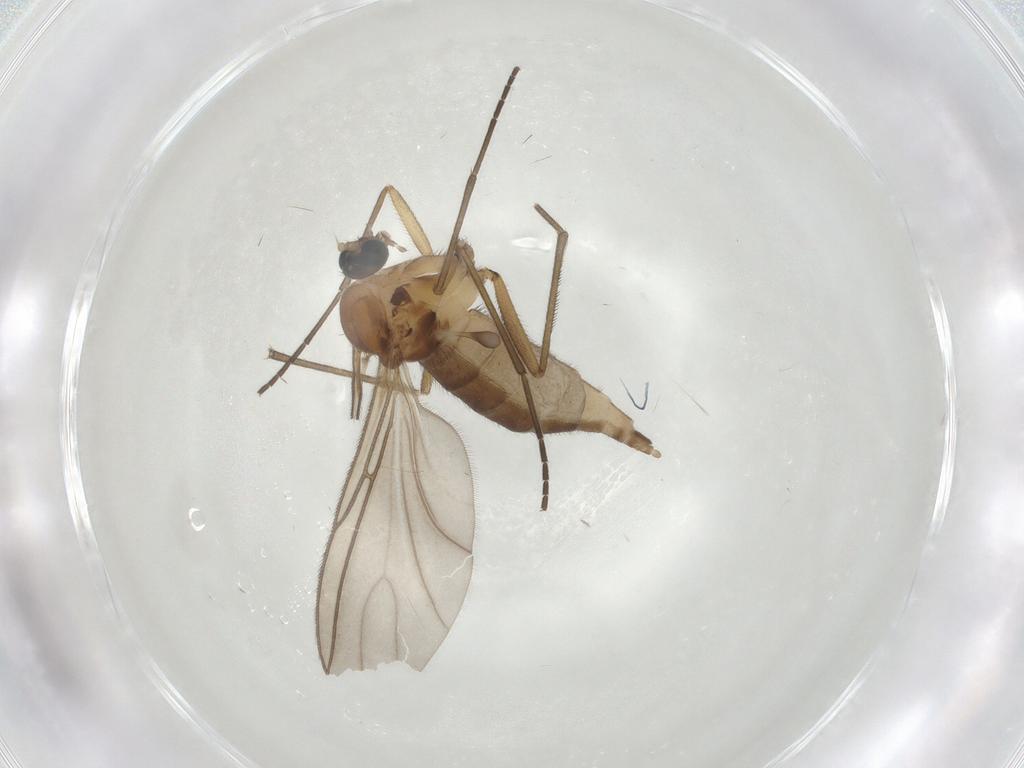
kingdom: Animalia
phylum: Arthropoda
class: Insecta
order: Diptera
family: Sciaridae
